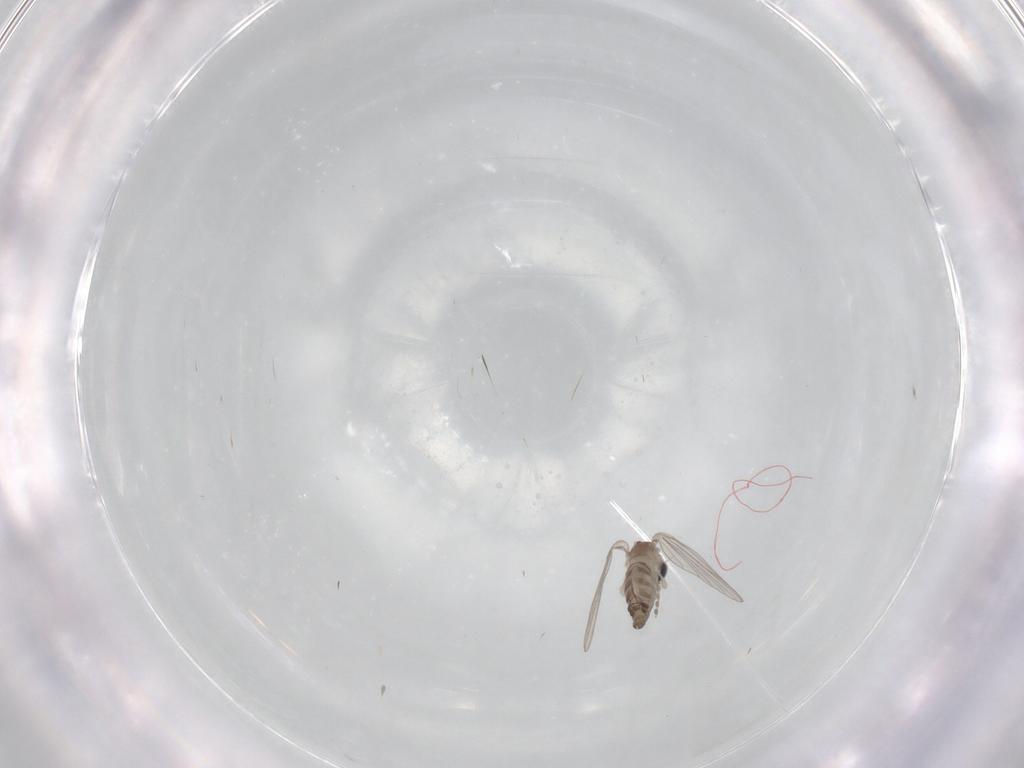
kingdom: Animalia
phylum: Arthropoda
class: Insecta
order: Diptera
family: Psychodidae
